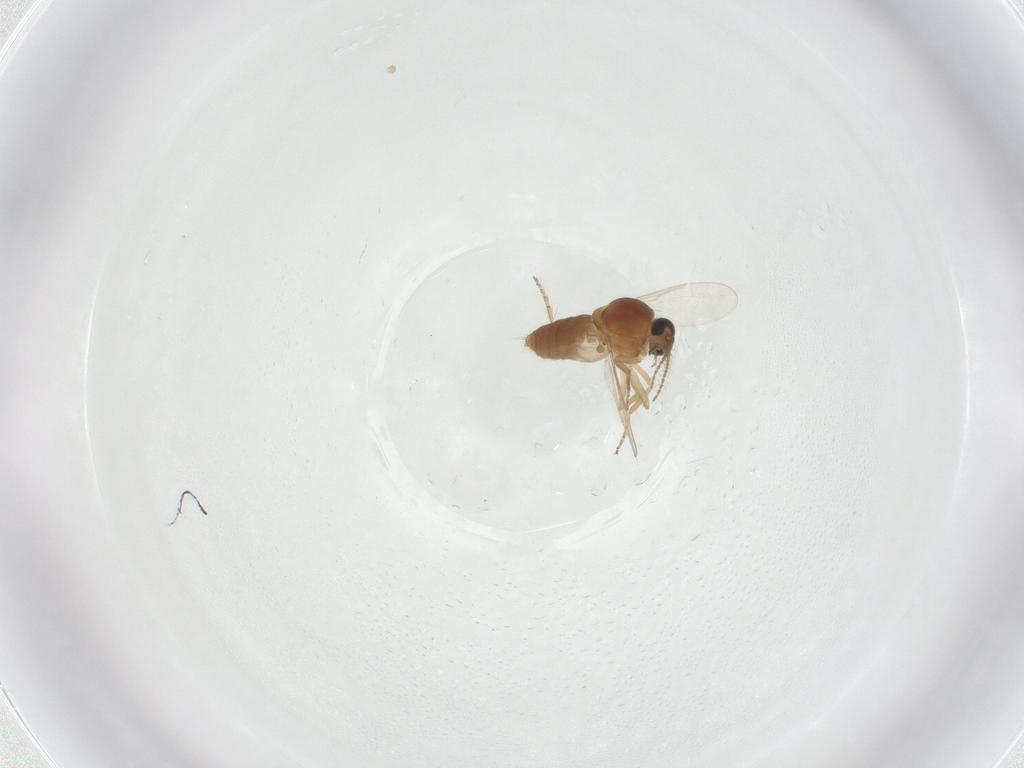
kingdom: Animalia
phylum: Arthropoda
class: Insecta
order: Diptera
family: Ceratopogonidae
